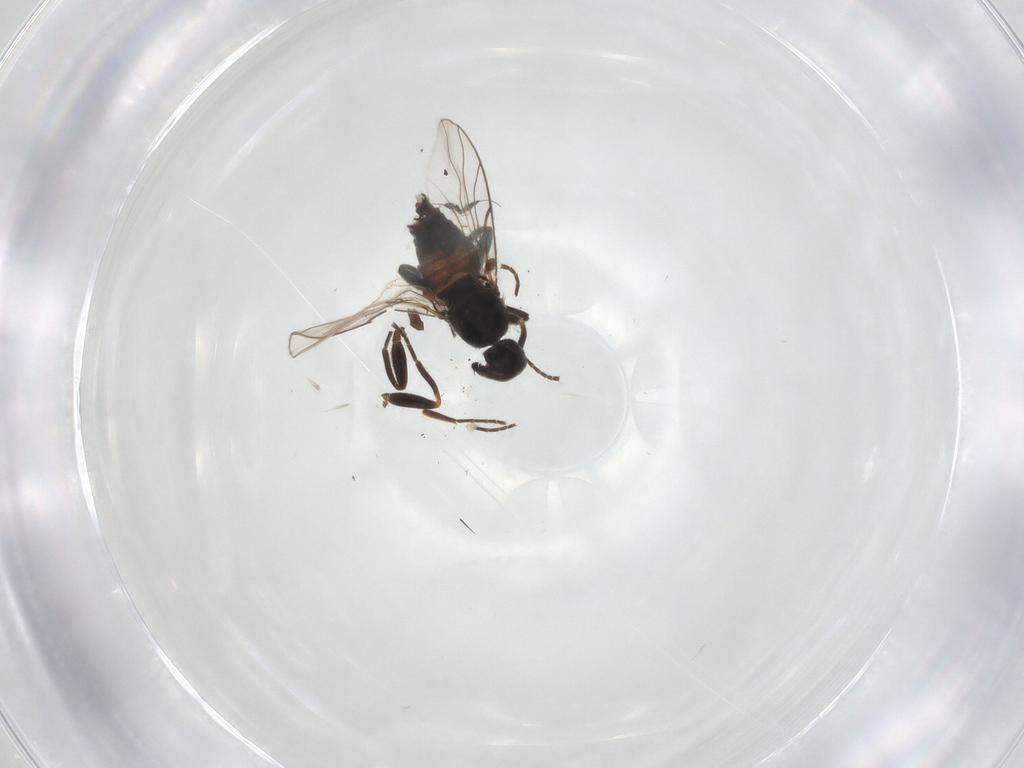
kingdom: Animalia
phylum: Arthropoda
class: Insecta
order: Diptera
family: Hybotidae
